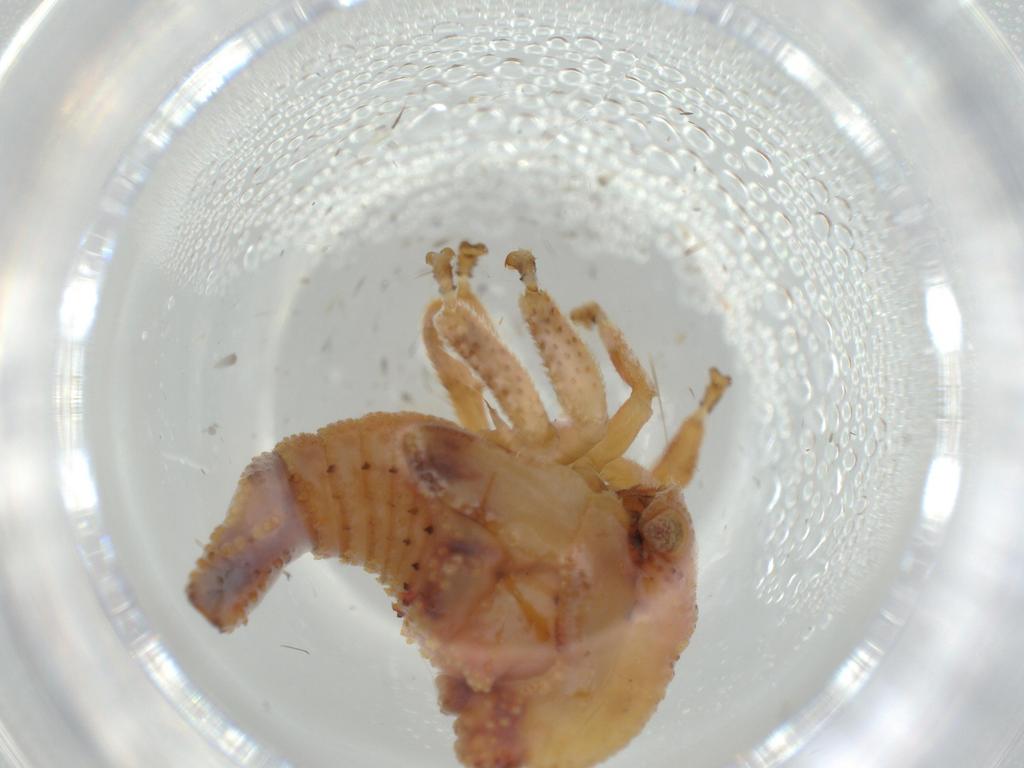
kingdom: Animalia
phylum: Arthropoda
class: Insecta
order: Hemiptera
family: Membracidae
